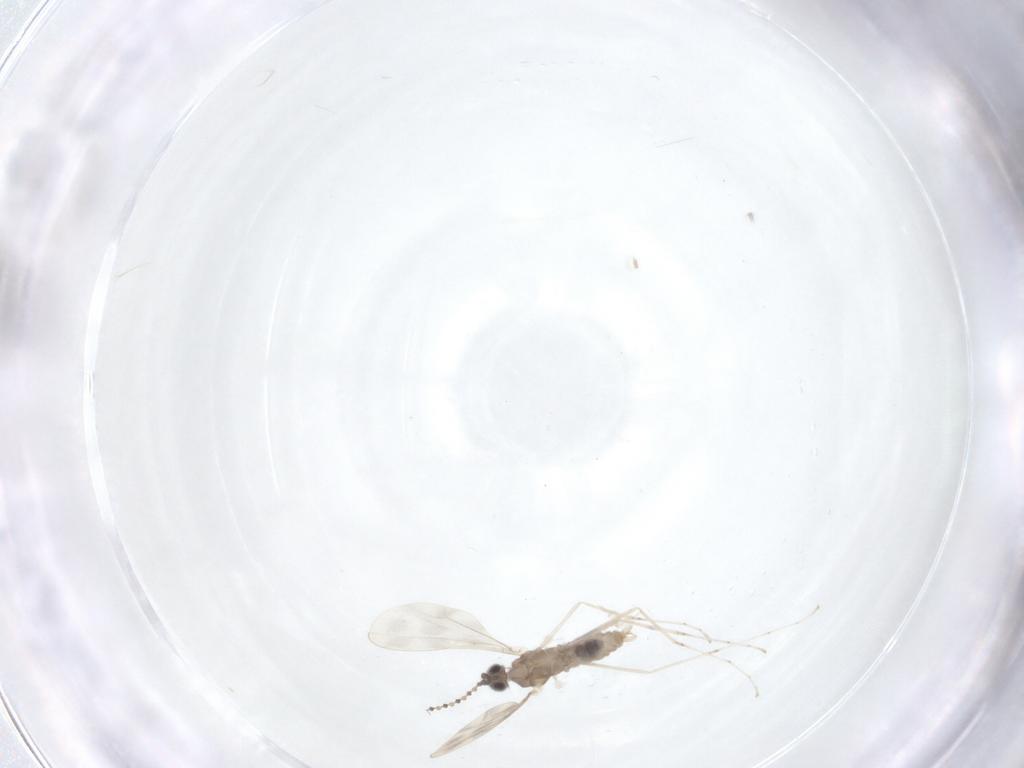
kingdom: Animalia
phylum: Arthropoda
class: Insecta
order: Diptera
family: Cecidomyiidae
